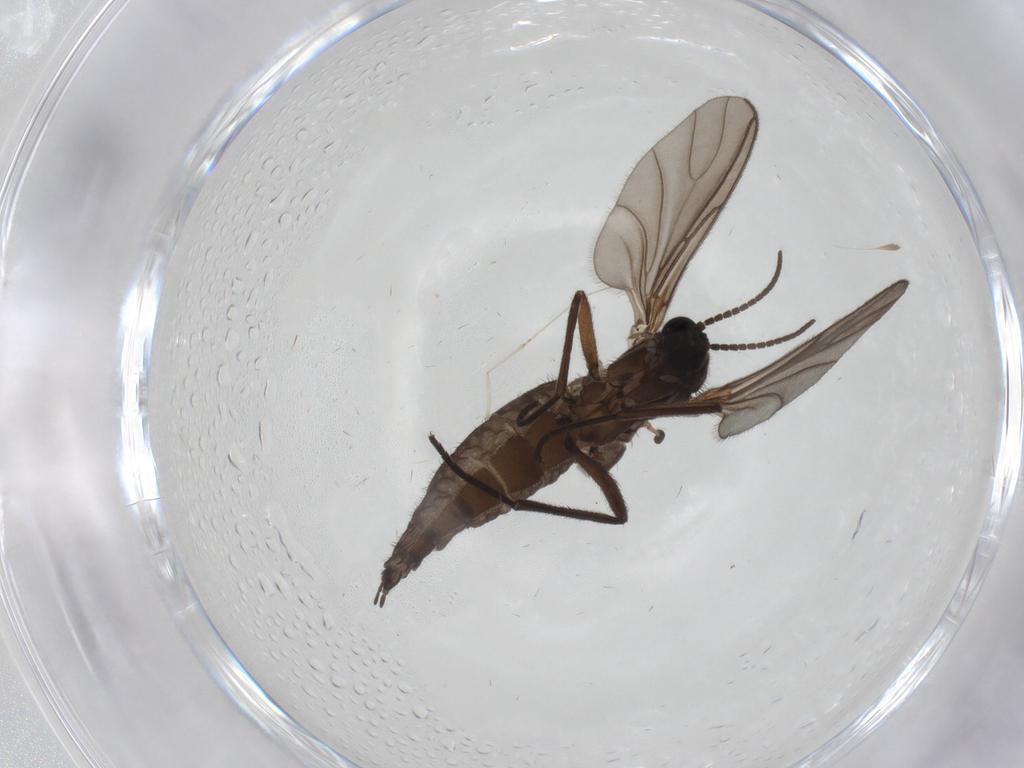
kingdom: Animalia
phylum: Arthropoda
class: Insecta
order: Diptera
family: Sciaridae
